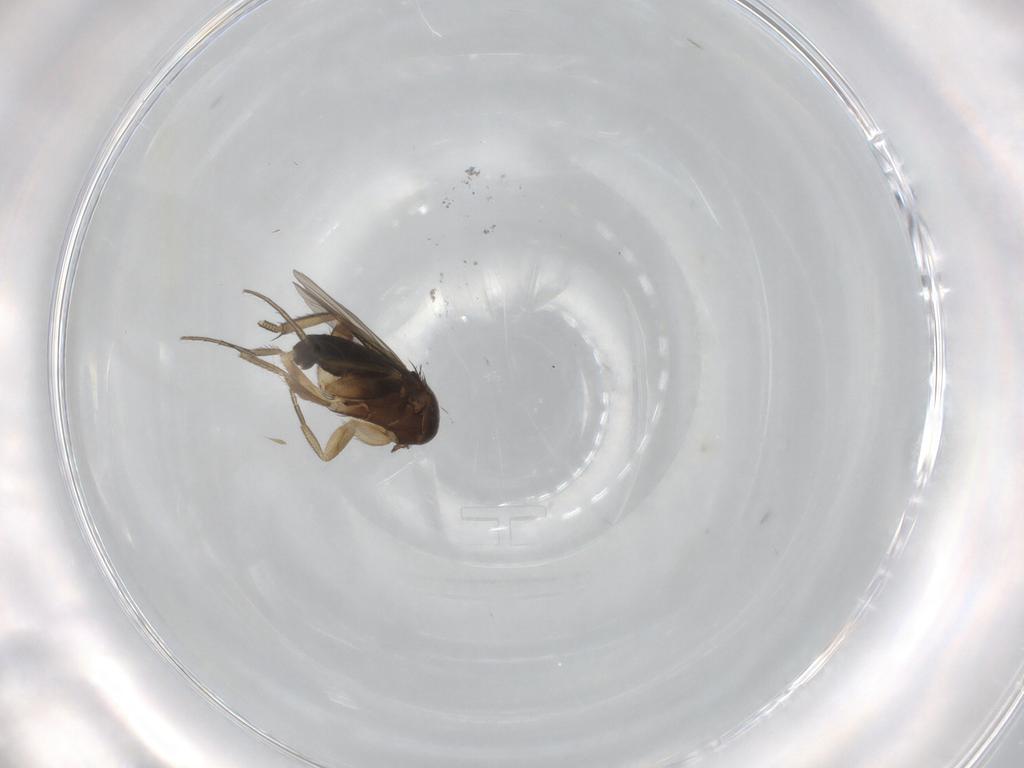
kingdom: Animalia
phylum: Arthropoda
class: Insecta
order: Diptera
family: Phoridae
